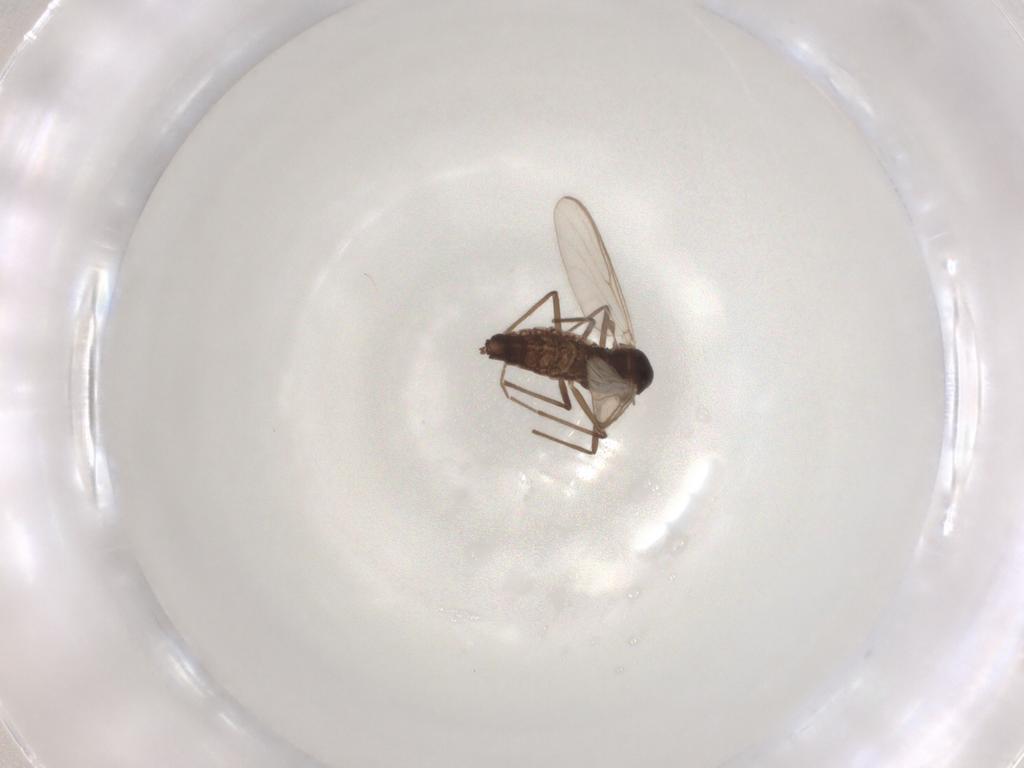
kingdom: Animalia
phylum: Arthropoda
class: Insecta
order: Diptera
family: Chironomidae
